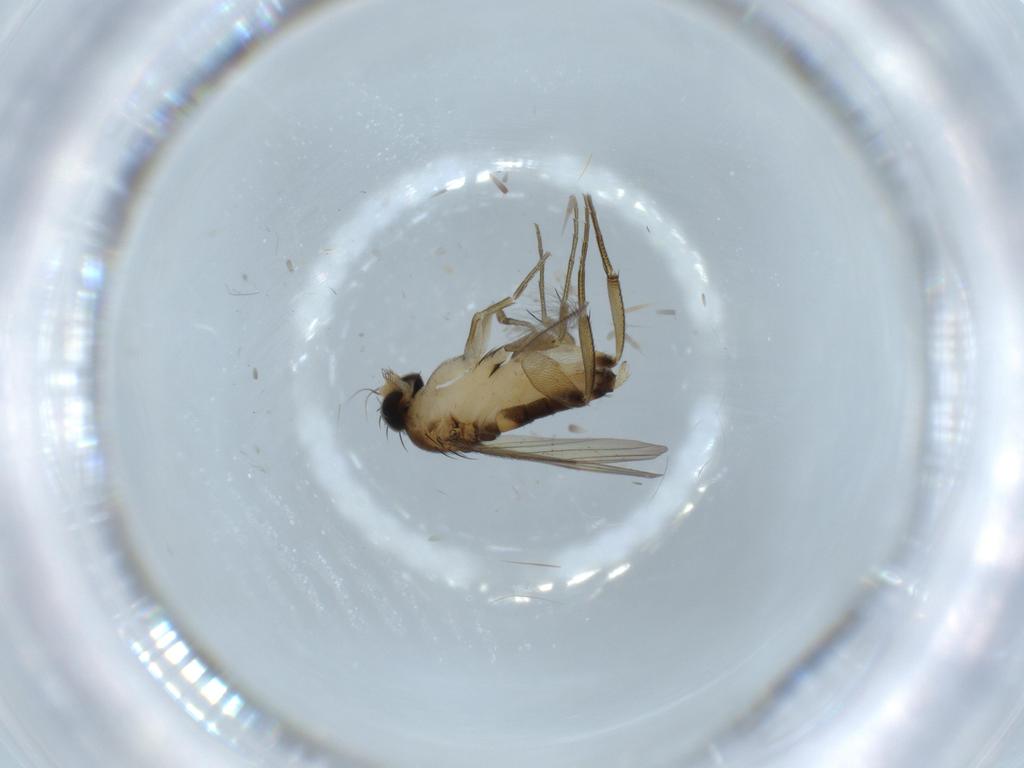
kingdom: Animalia
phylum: Arthropoda
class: Insecta
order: Diptera
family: Phoridae
